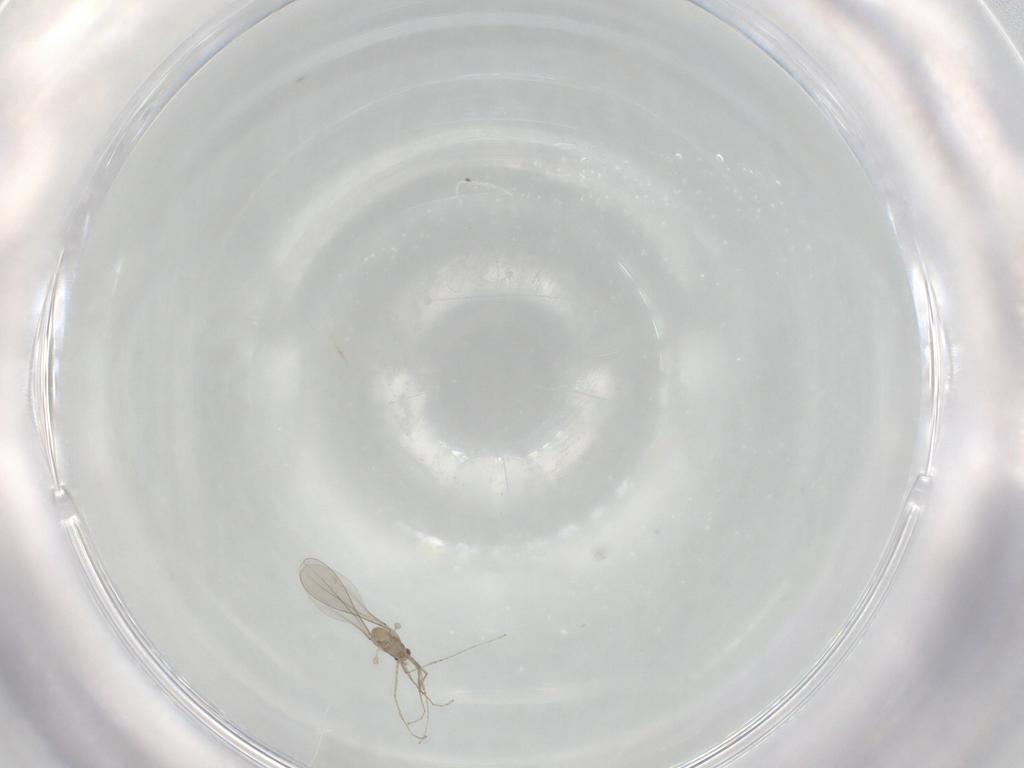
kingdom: Animalia
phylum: Arthropoda
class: Insecta
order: Diptera
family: Cecidomyiidae
